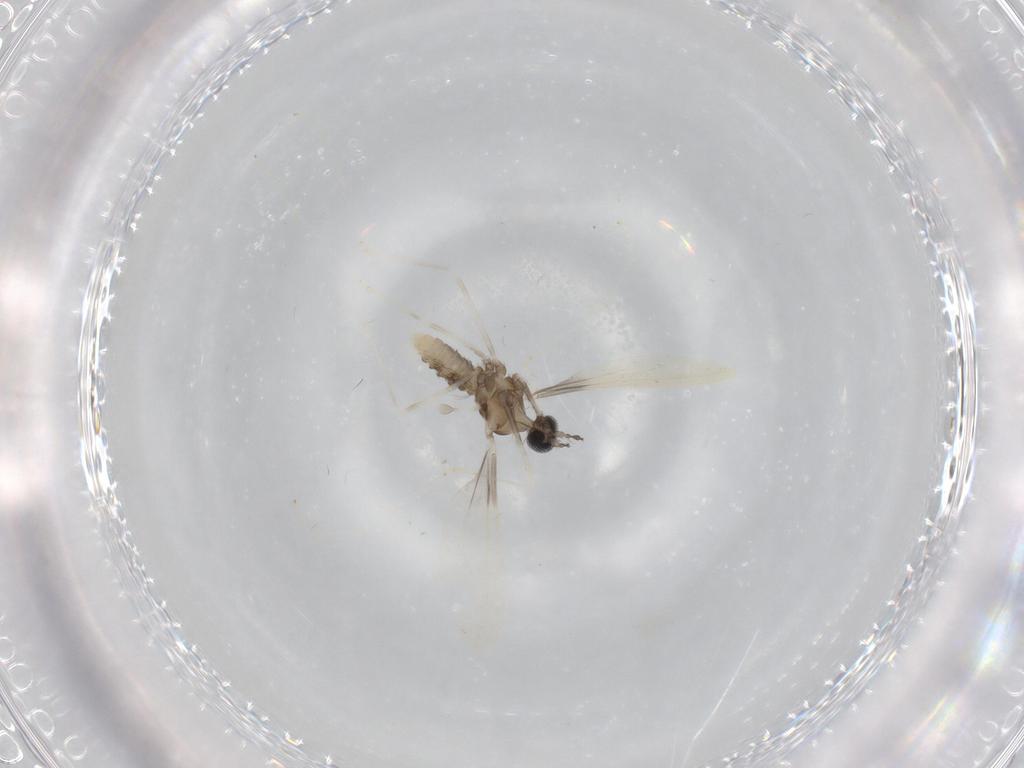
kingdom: Animalia
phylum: Arthropoda
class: Insecta
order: Diptera
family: Cecidomyiidae
